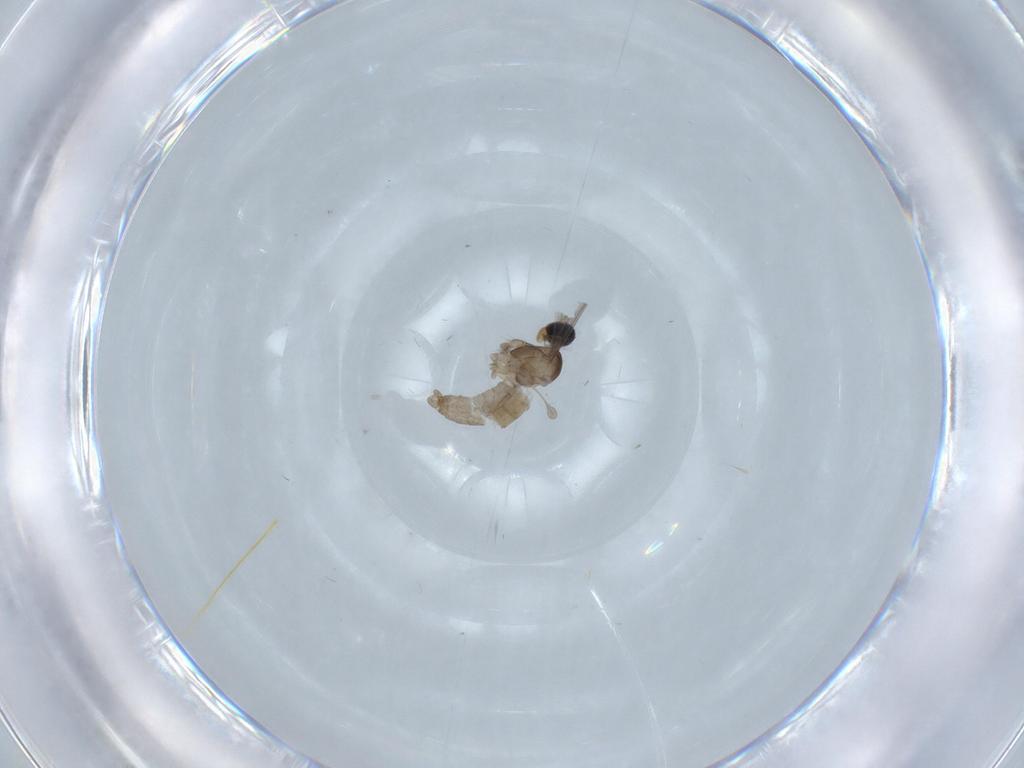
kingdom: Animalia
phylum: Arthropoda
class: Insecta
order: Diptera
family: Cecidomyiidae
